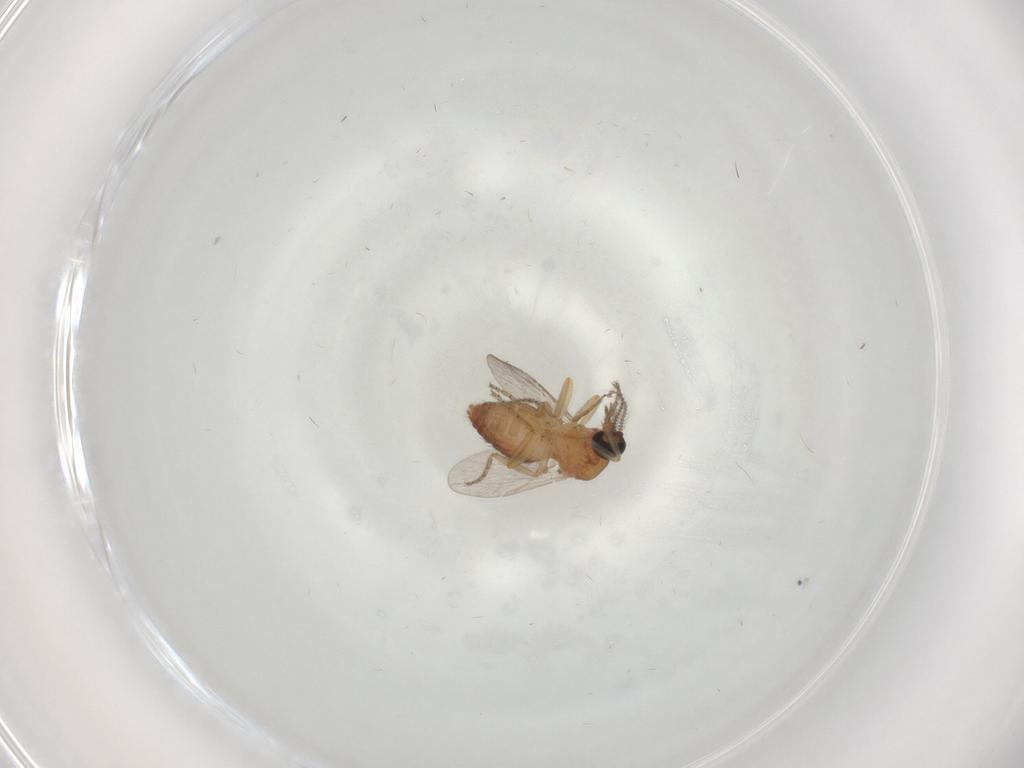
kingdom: Animalia
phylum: Arthropoda
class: Insecta
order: Diptera
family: Ceratopogonidae
